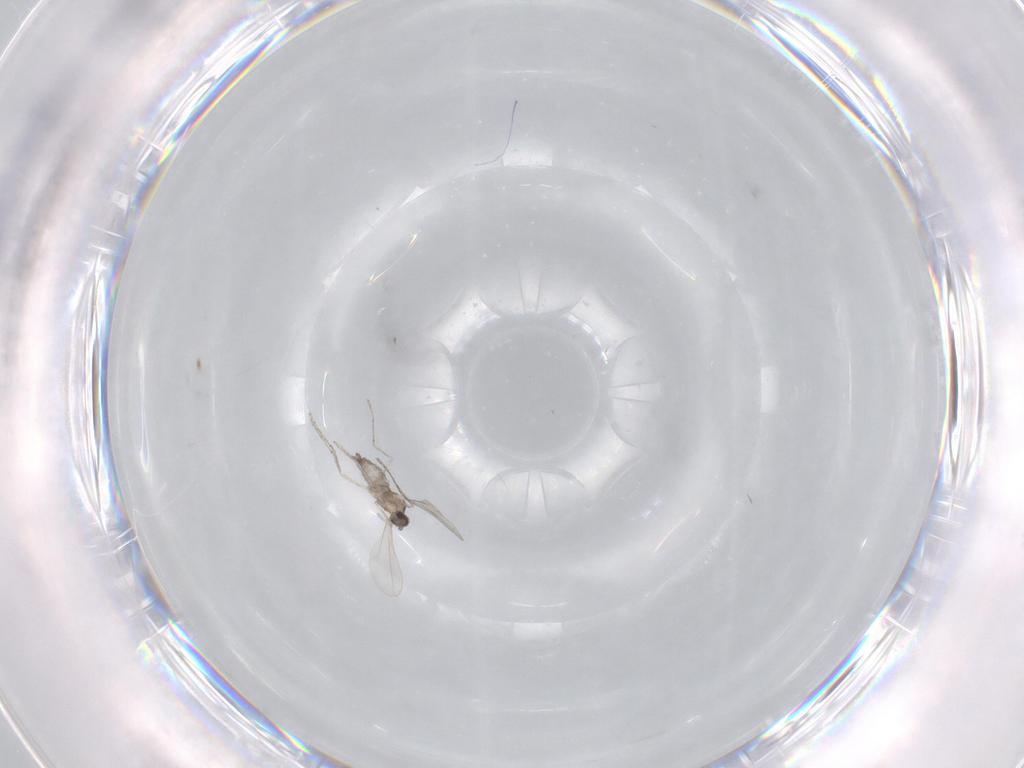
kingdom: Animalia
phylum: Arthropoda
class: Insecta
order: Diptera
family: Cecidomyiidae
